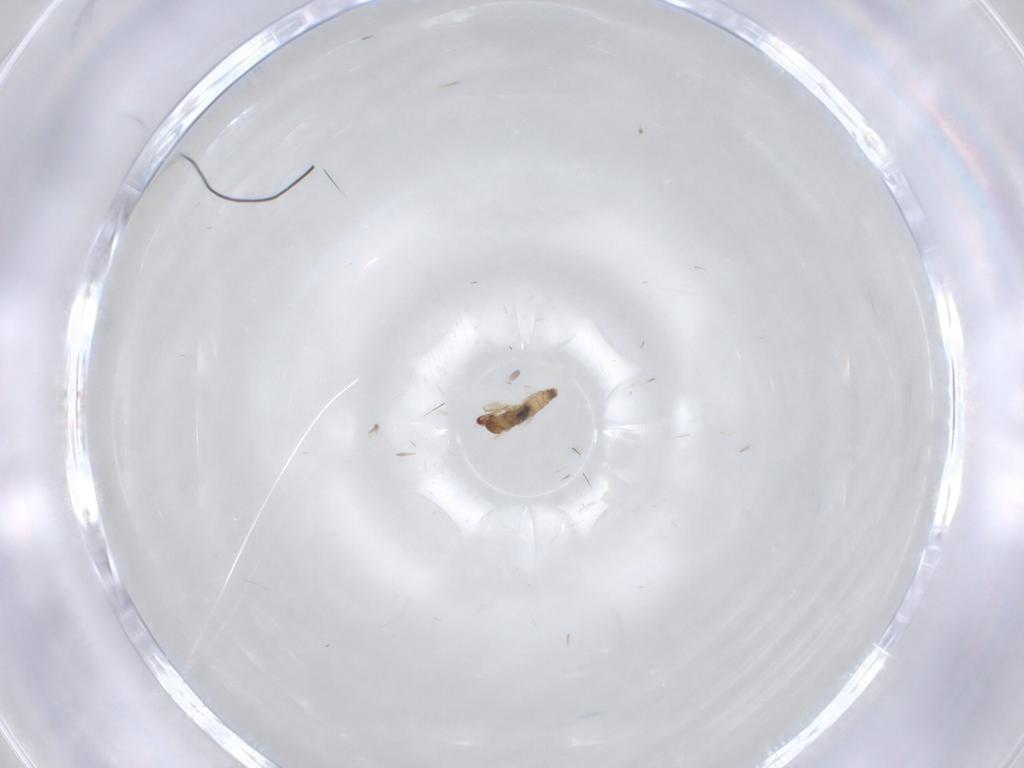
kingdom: Animalia
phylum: Arthropoda
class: Insecta
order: Diptera
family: Cecidomyiidae
